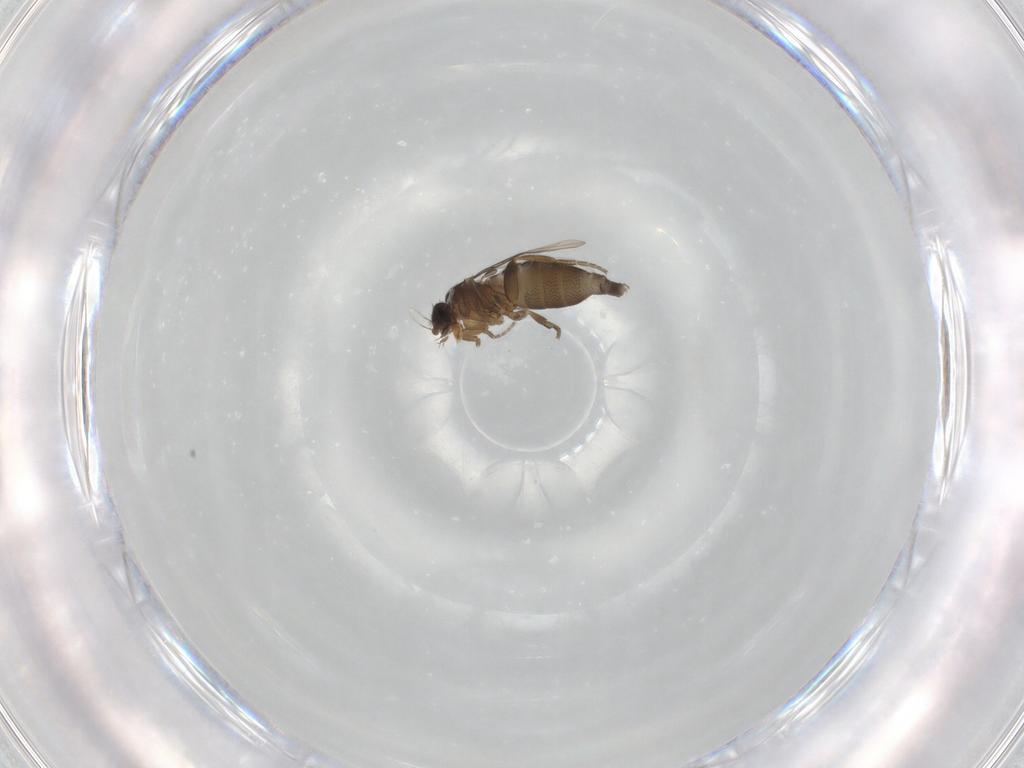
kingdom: Animalia
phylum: Arthropoda
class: Insecta
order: Diptera
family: Phoridae
